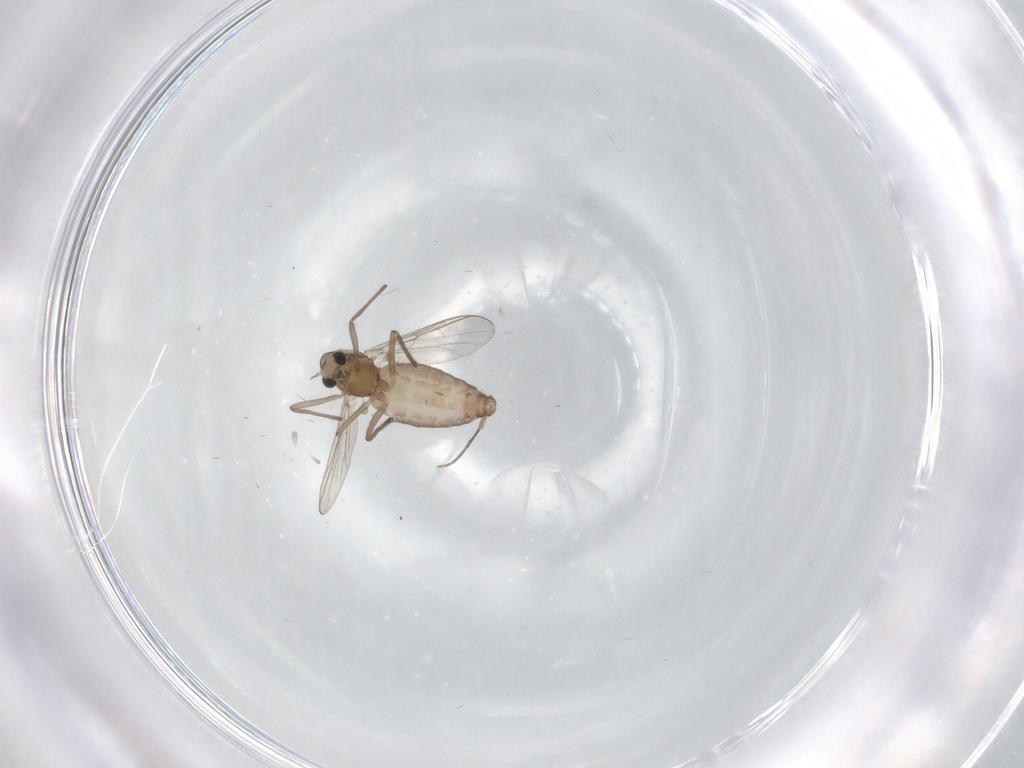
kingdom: Animalia
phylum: Arthropoda
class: Insecta
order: Diptera
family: Chironomidae
